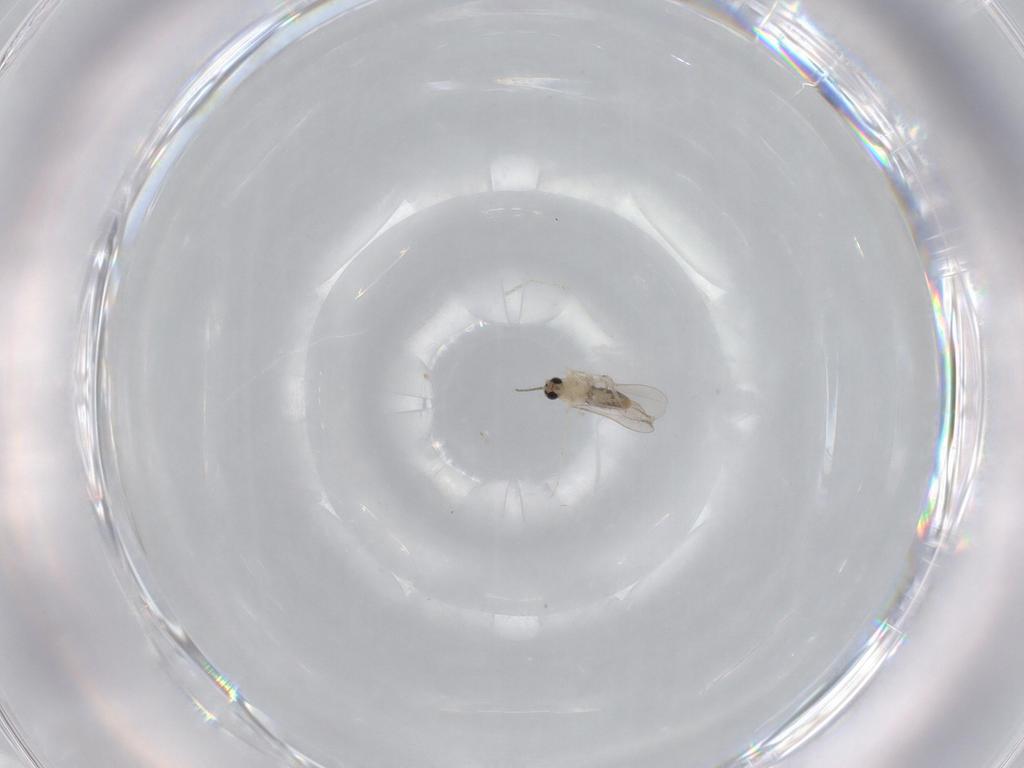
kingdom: Animalia
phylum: Arthropoda
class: Insecta
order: Diptera
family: Cecidomyiidae
